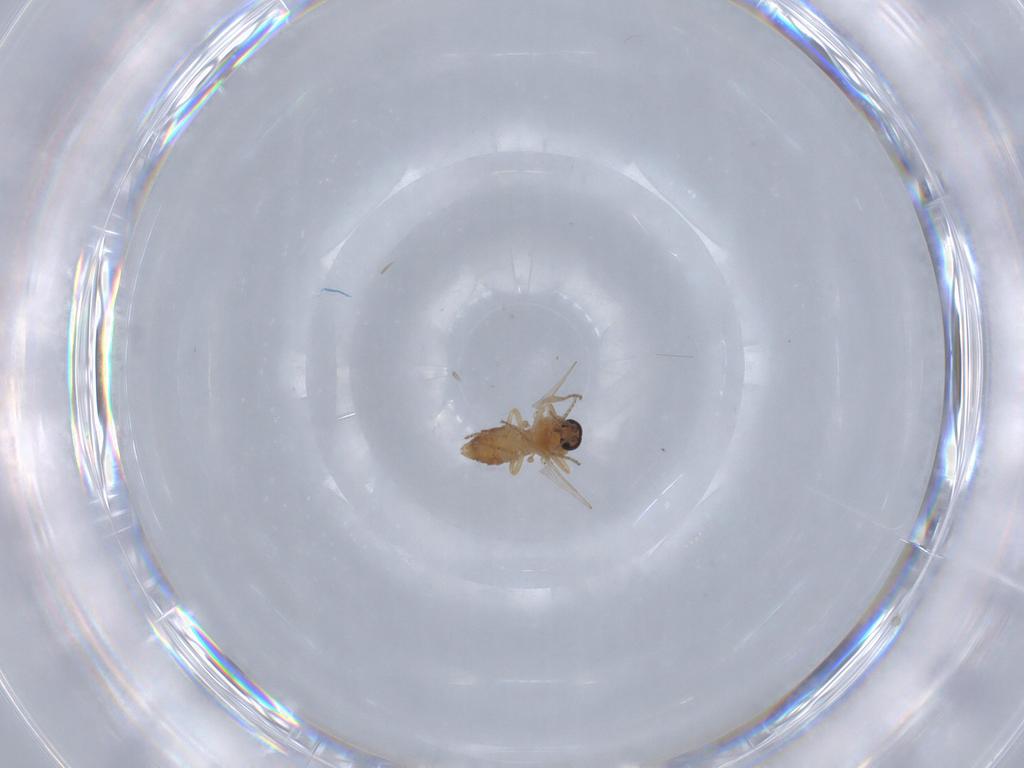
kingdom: Animalia
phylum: Arthropoda
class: Insecta
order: Diptera
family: Ceratopogonidae
